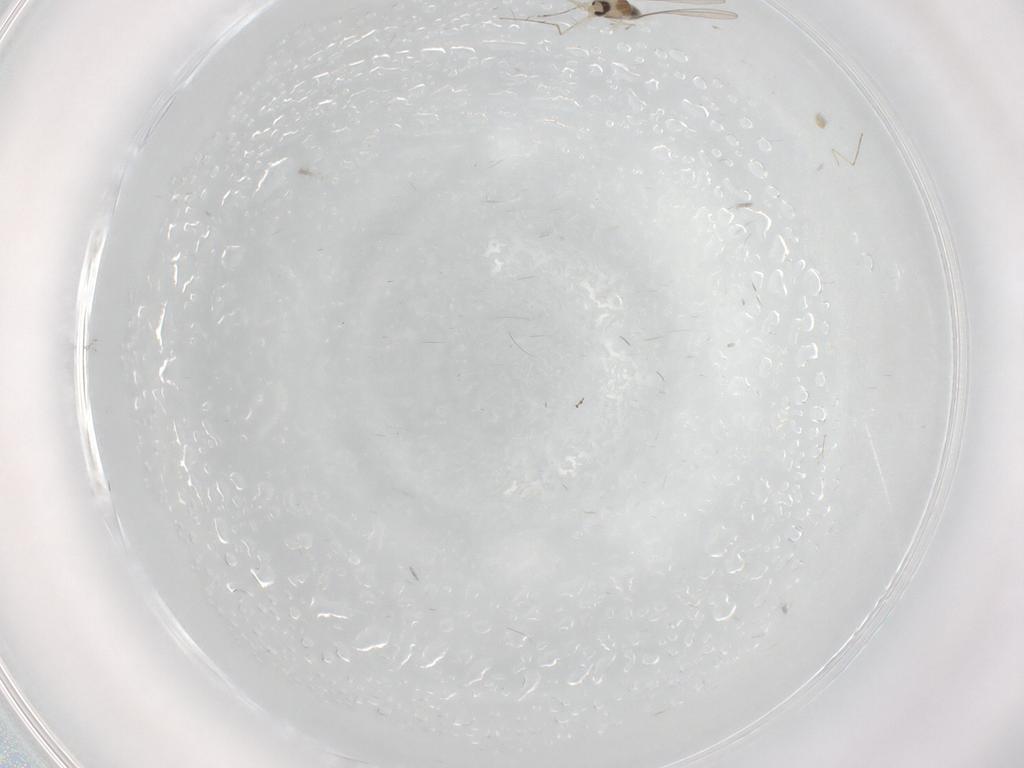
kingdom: Animalia
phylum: Arthropoda
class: Insecta
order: Diptera
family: Cecidomyiidae
